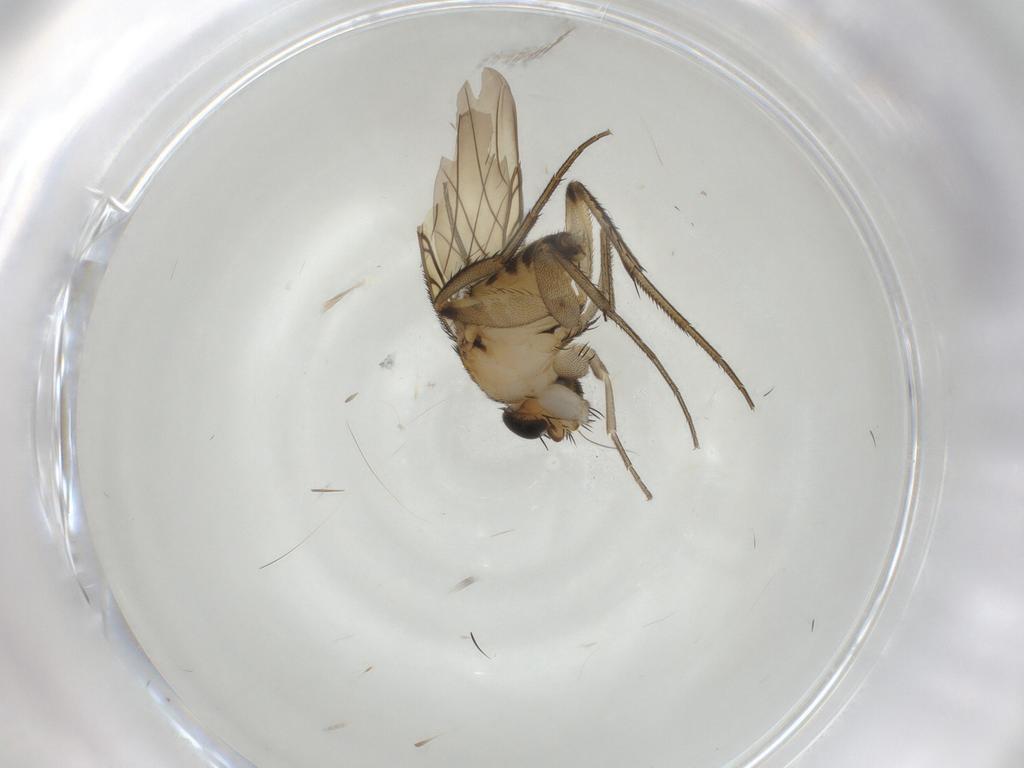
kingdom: Animalia
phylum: Arthropoda
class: Insecta
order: Diptera
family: Phoridae
